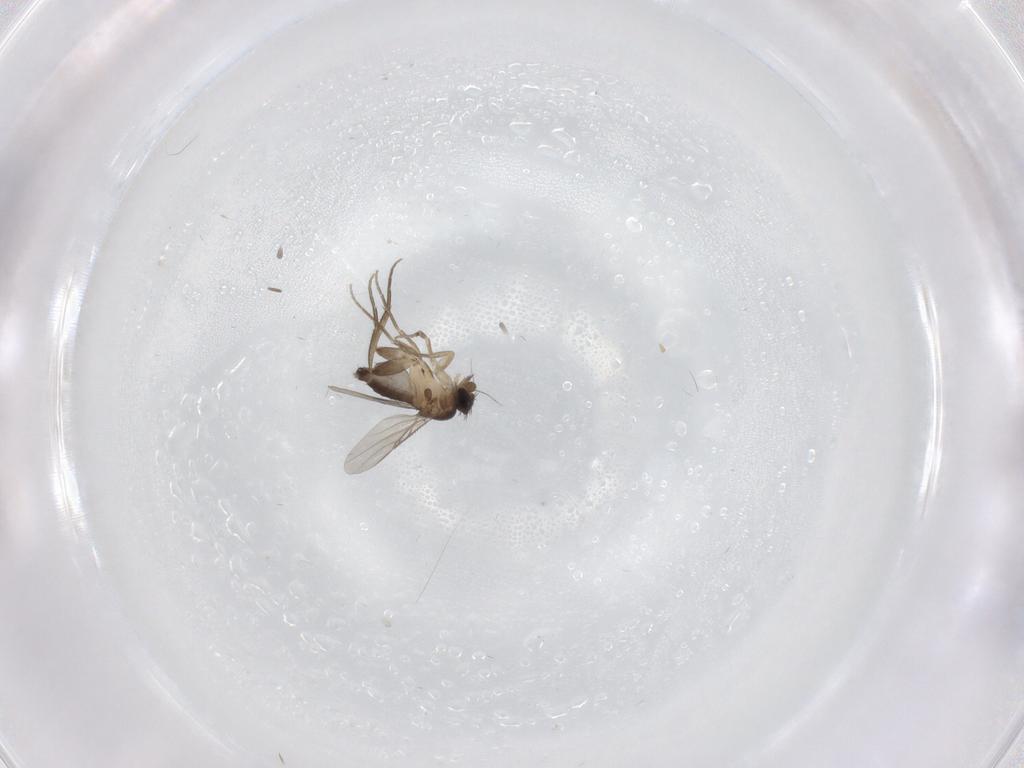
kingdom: Animalia
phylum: Arthropoda
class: Insecta
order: Diptera
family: Phoridae
